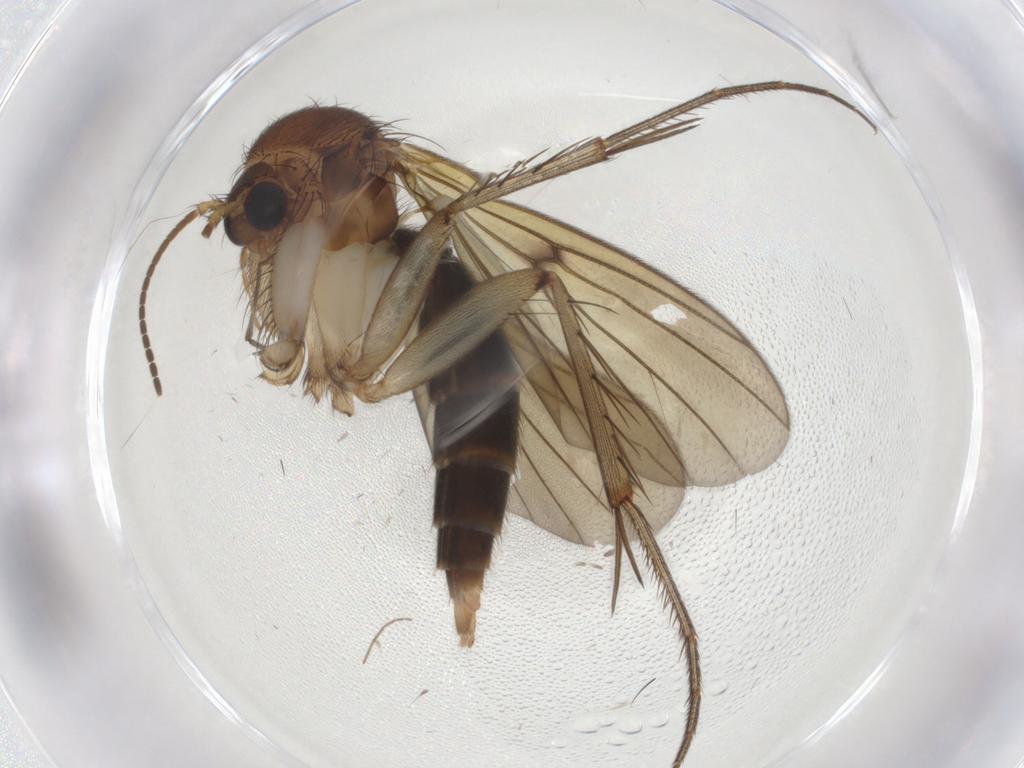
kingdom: Animalia
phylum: Arthropoda
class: Insecta
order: Diptera
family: Mycetophilidae
